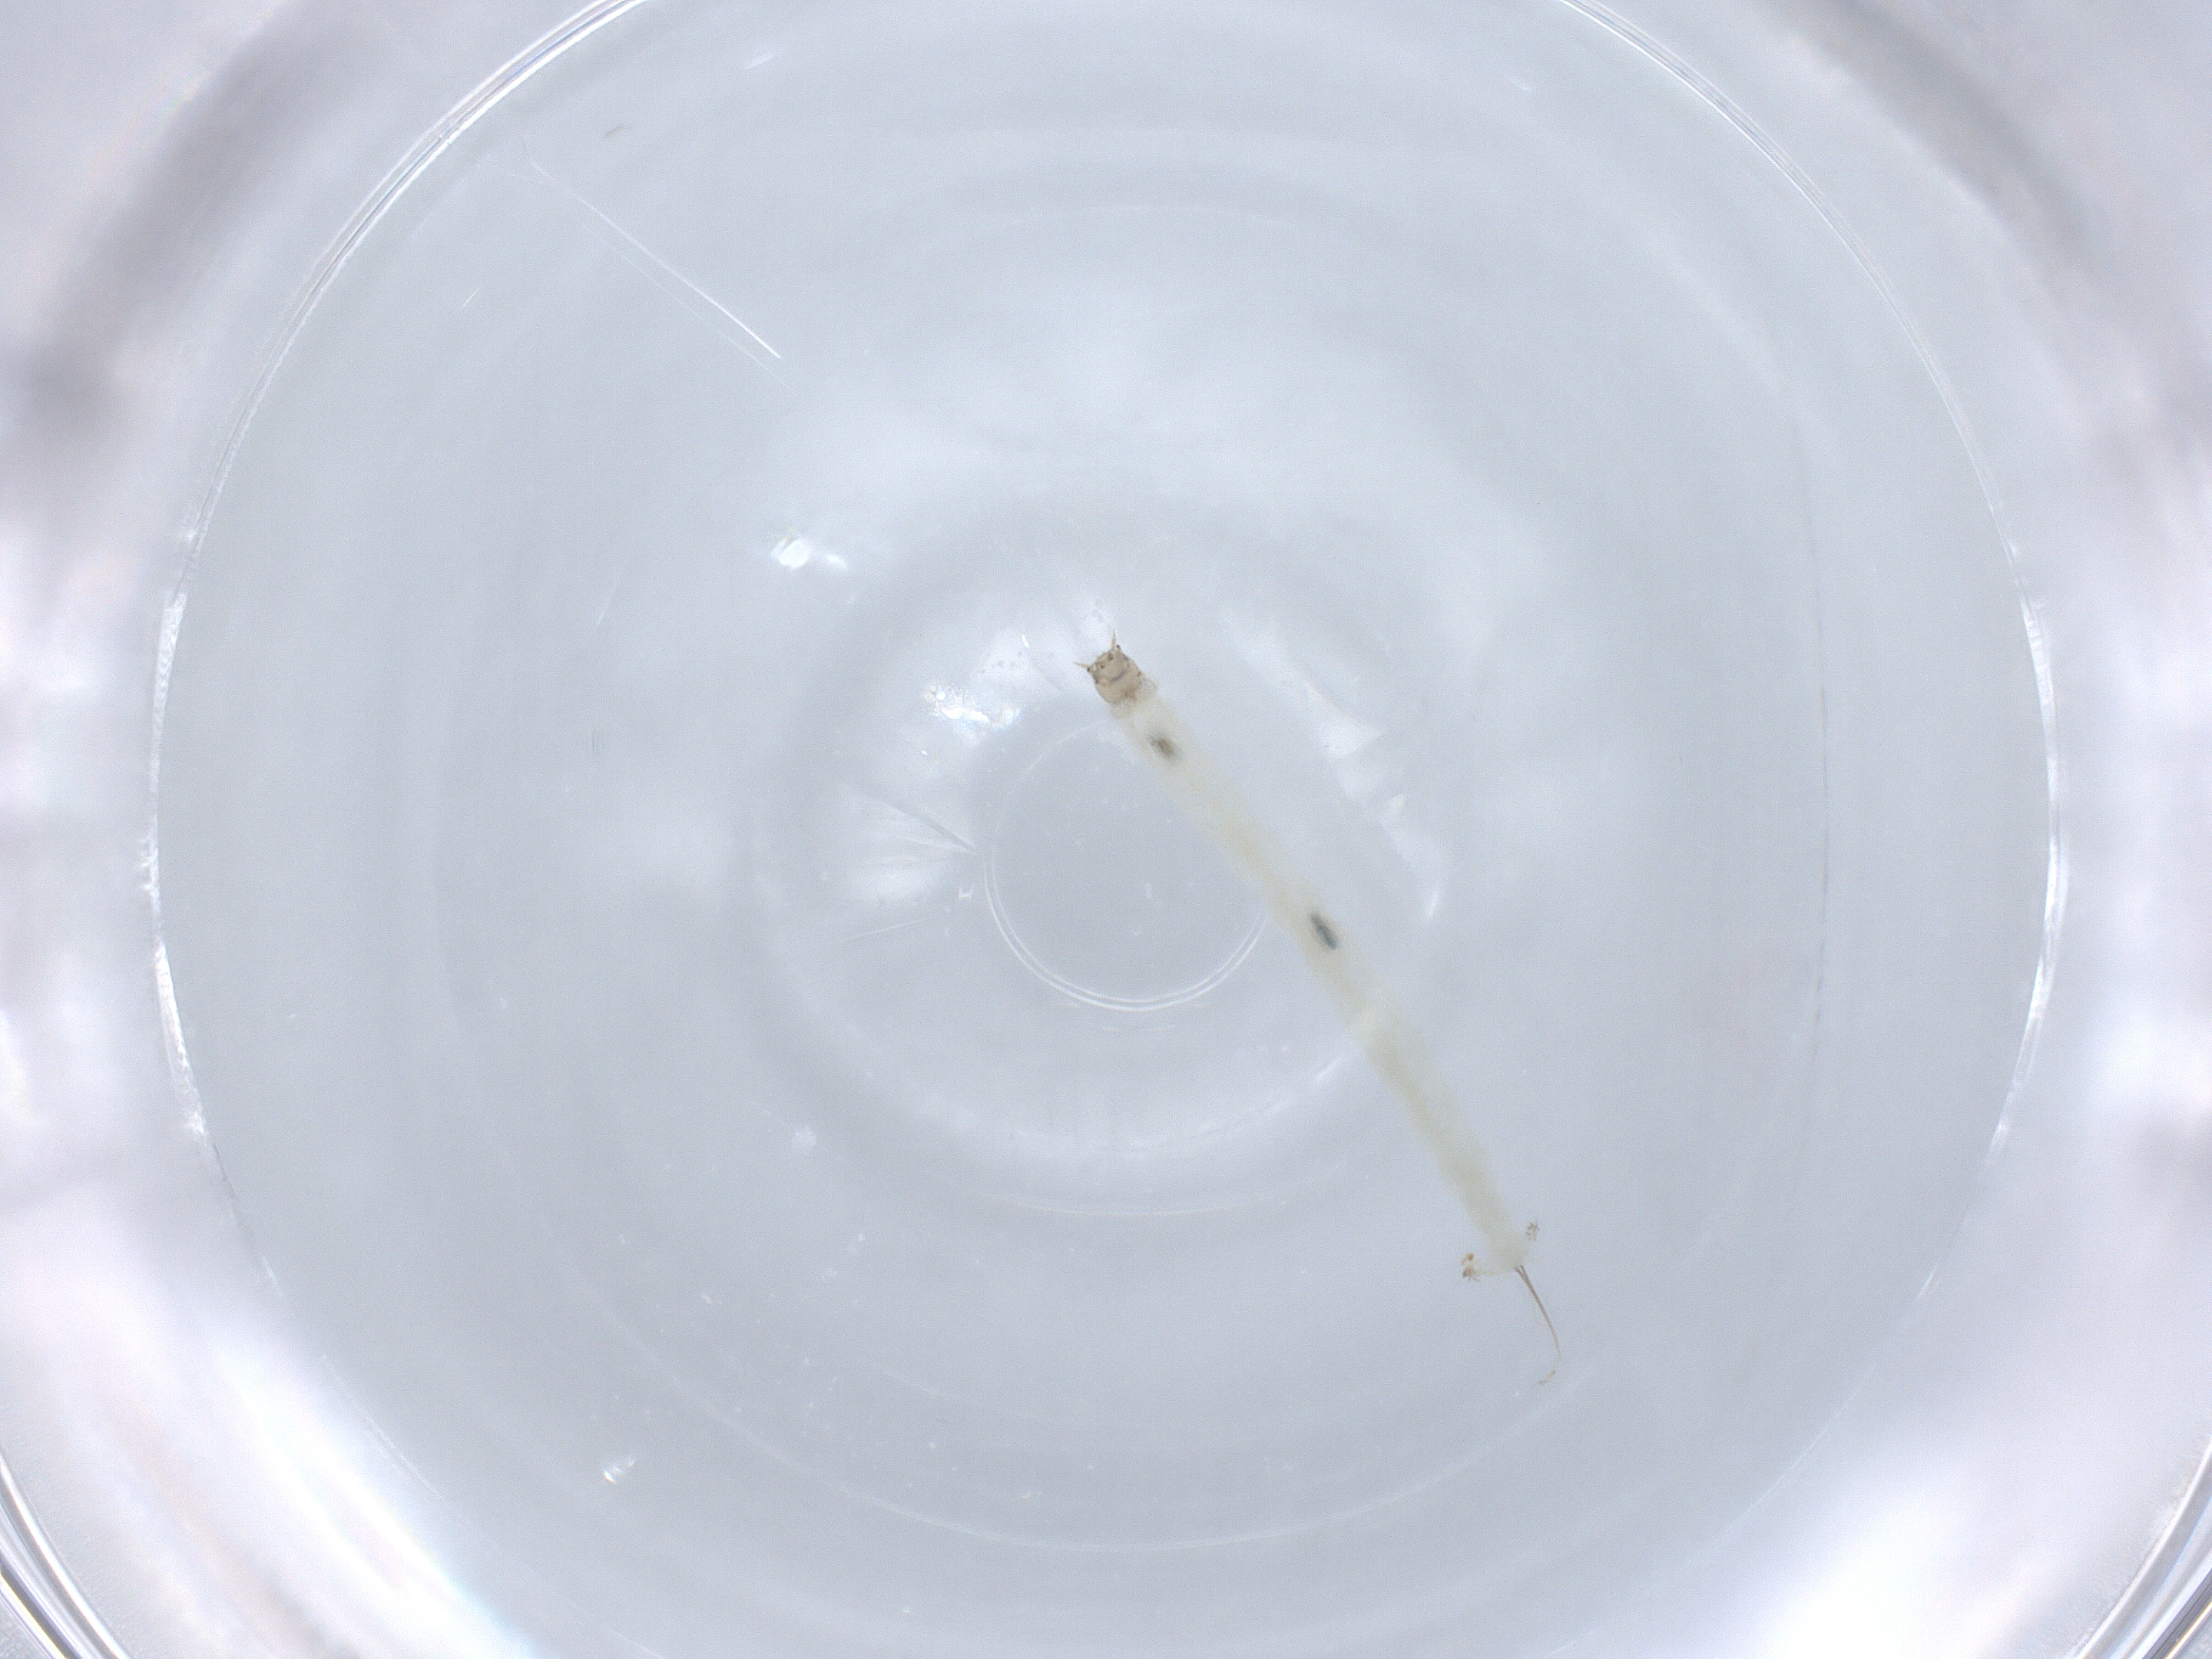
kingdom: Animalia
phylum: Arthropoda
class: Insecta
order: Diptera
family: Chironomidae
